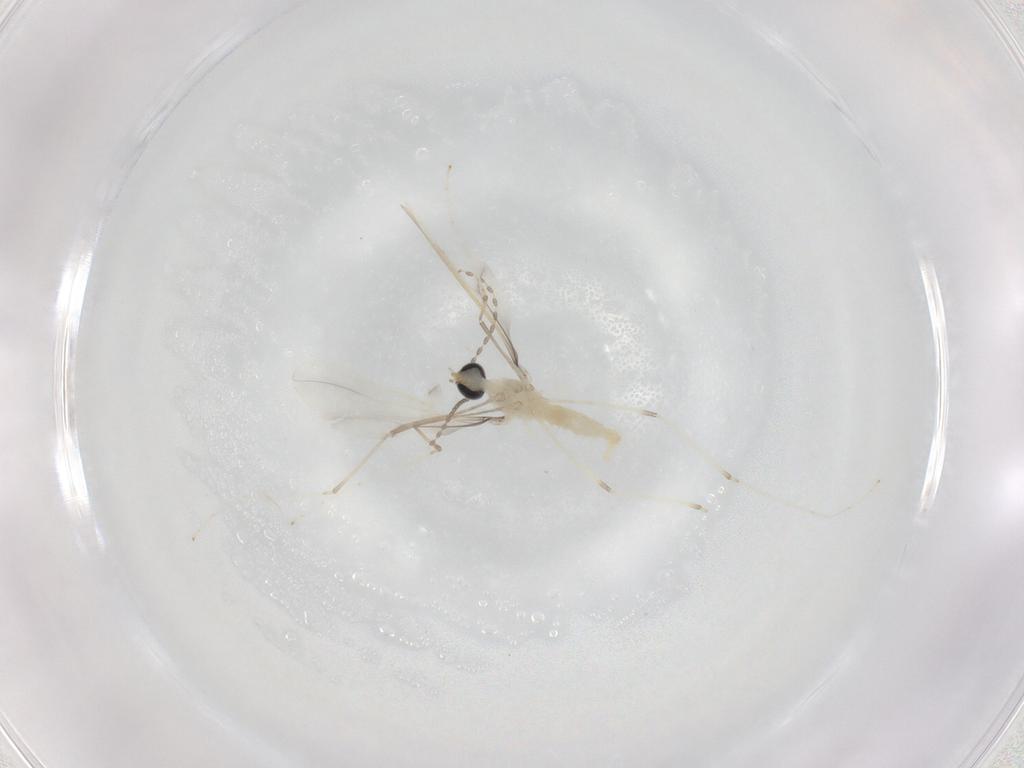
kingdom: Animalia
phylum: Arthropoda
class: Insecta
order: Diptera
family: Cecidomyiidae
